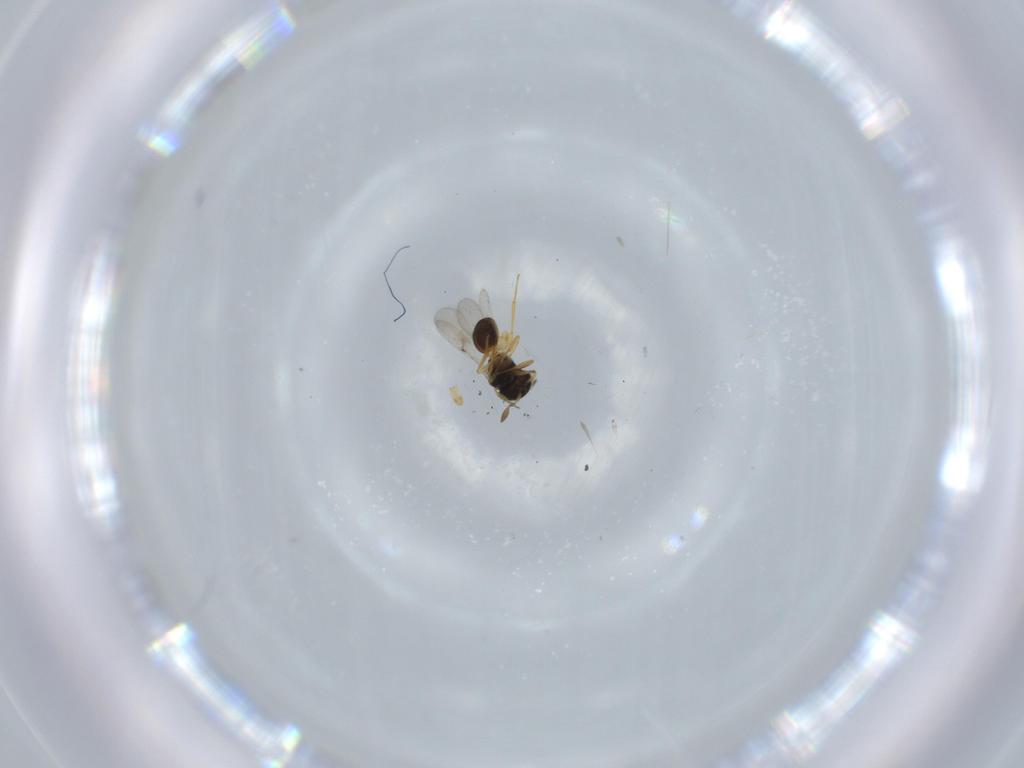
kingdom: Animalia
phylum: Arthropoda
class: Insecta
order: Hymenoptera
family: Scelionidae
